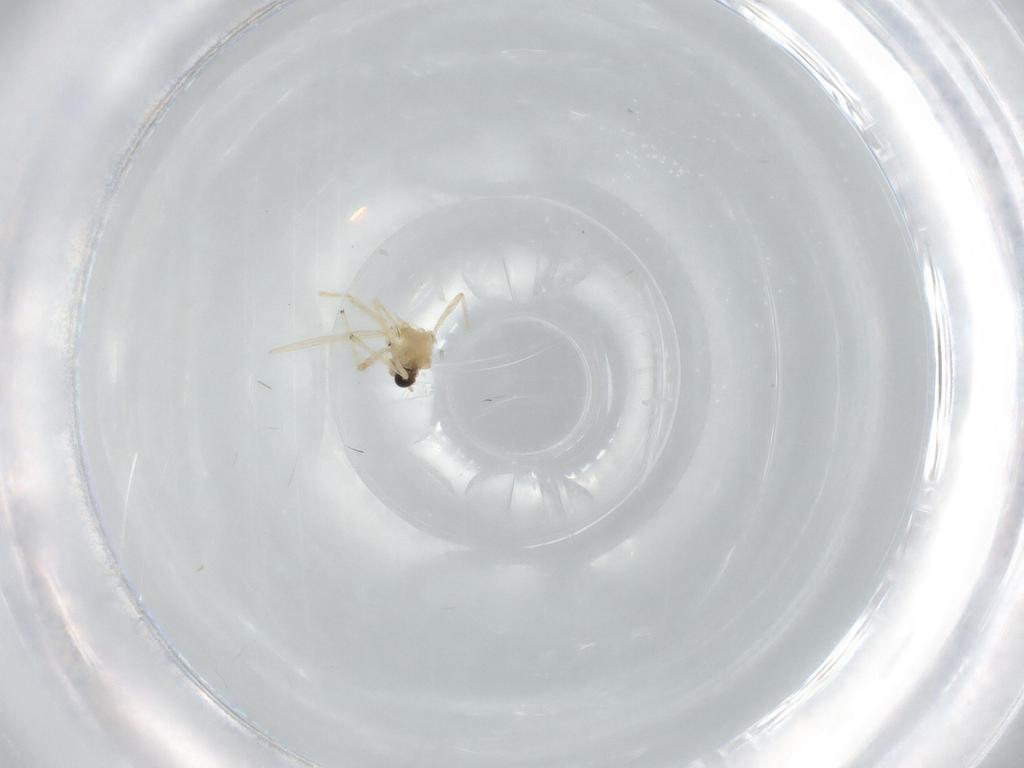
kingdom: Animalia
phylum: Arthropoda
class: Insecta
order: Diptera
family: Chironomidae
